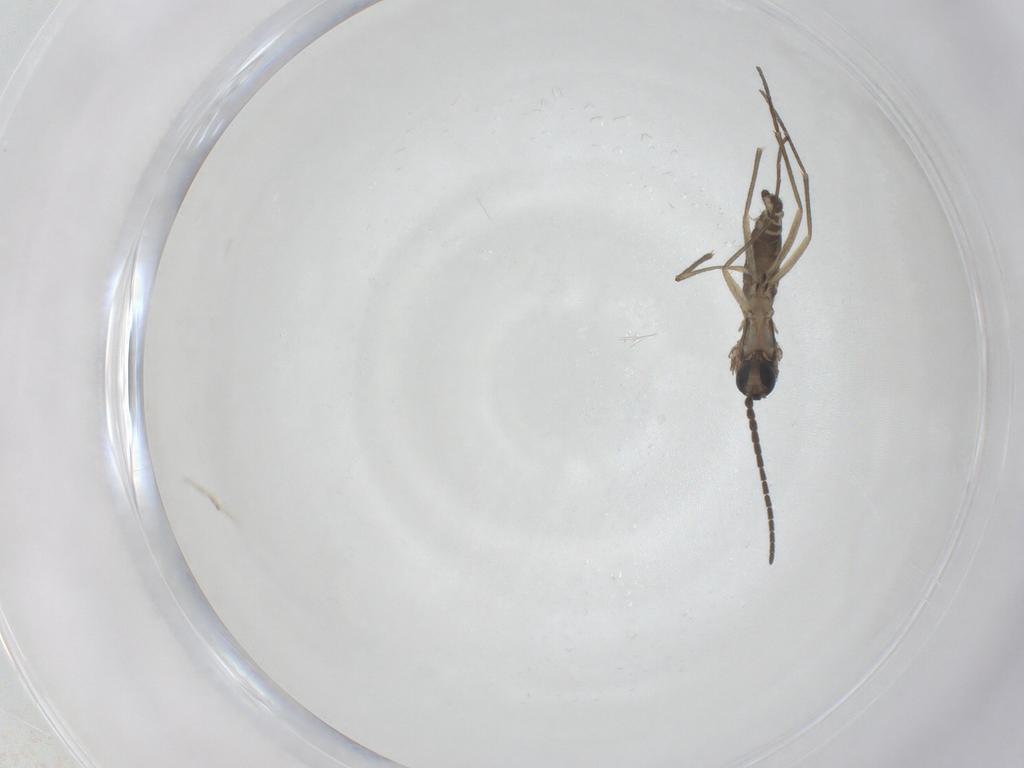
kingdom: Animalia
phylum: Arthropoda
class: Insecta
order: Diptera
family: Sciaridae
